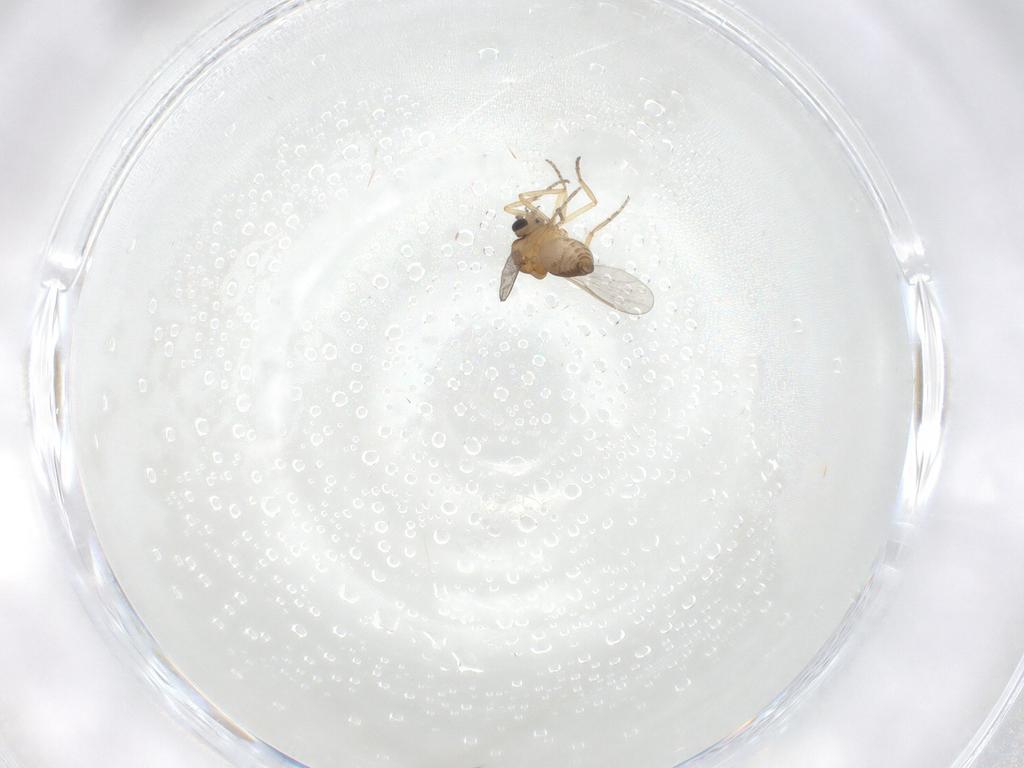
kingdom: Animalia
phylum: Arthropoda
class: Insecta
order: Diptera
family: Ceratopogonidae
